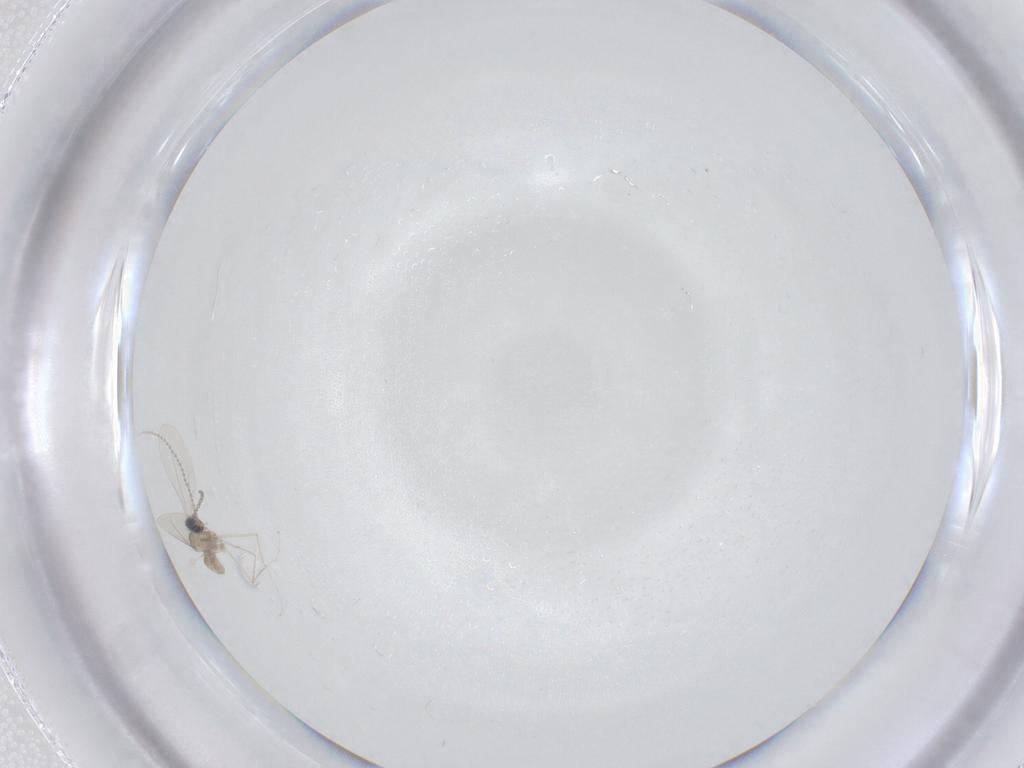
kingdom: Animalia
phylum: Arthropoda
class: Insecta
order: Diptera
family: Cecidomyiidae
